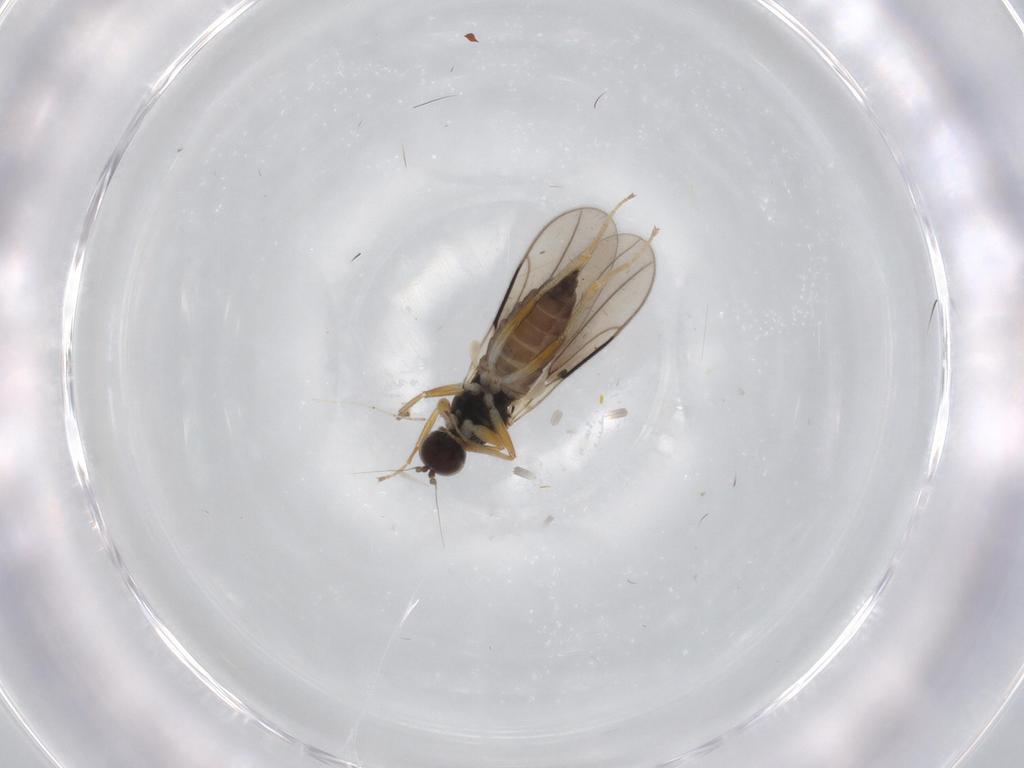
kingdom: Animalia
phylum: Arthropoda
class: Insecta
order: Diptera
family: Hybotidae
